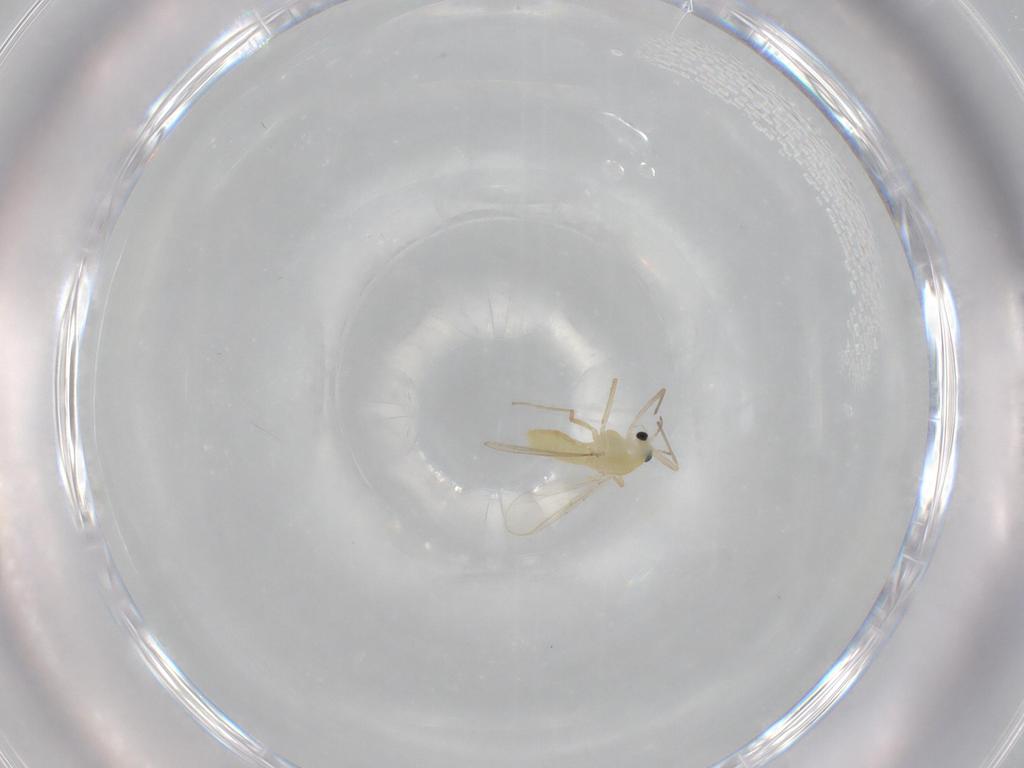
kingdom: Animalia
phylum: Arthropoda
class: Insecta
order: Diptera
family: Chironomidae
